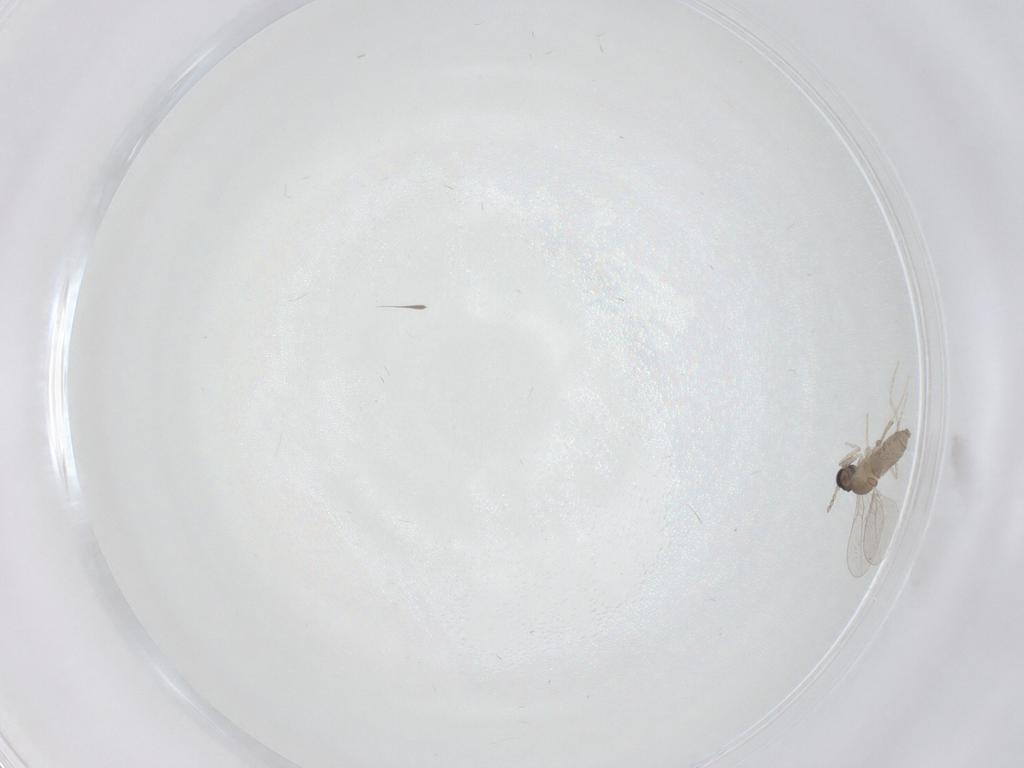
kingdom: Animalia
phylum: Arthropoda
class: Insecta
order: Diptera
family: Cecidomyiidae
